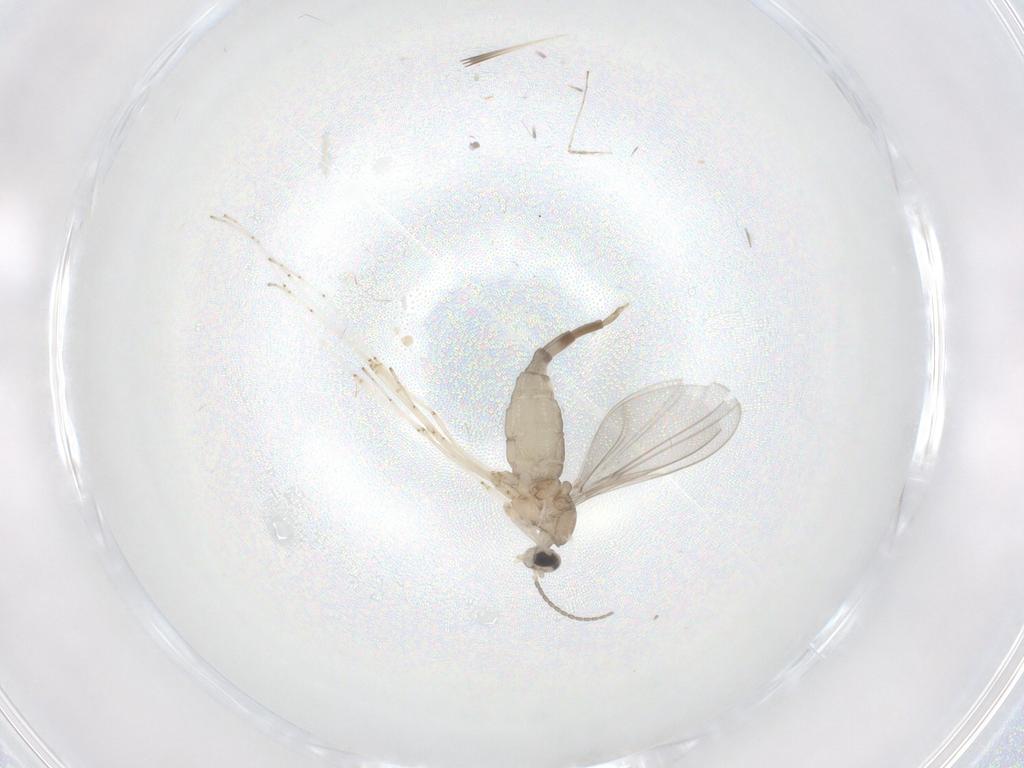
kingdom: Animalia
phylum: Arthropoda
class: Insecta
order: Diptera
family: Cecidomyiidae
